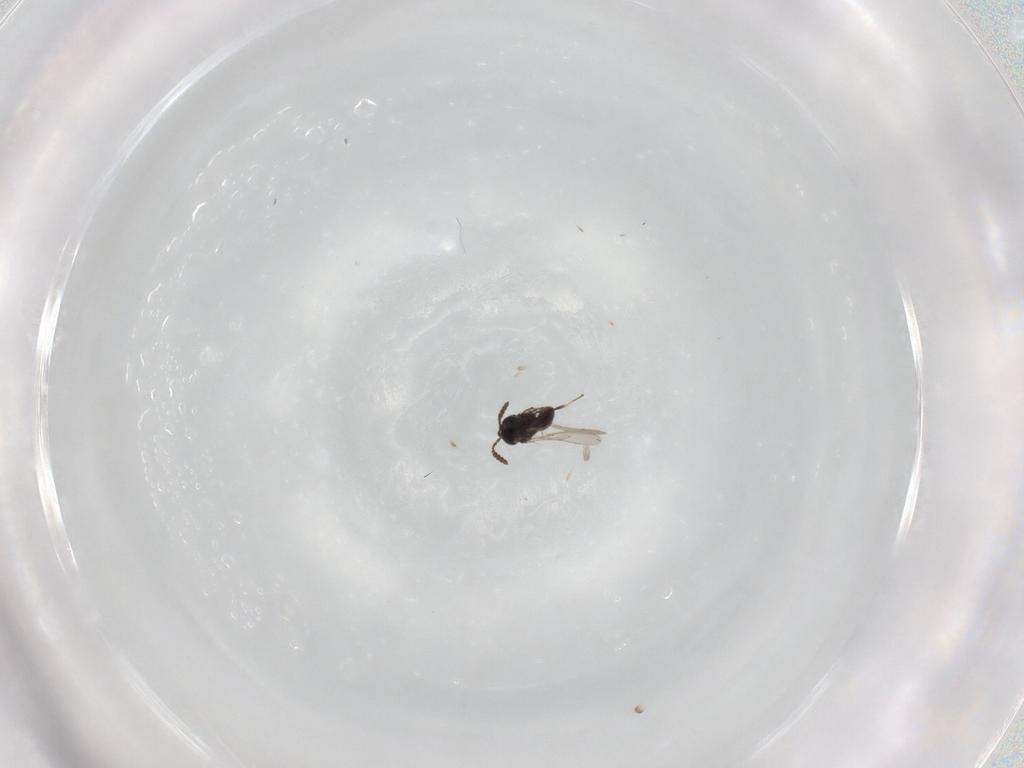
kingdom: Animalia
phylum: Arthropoda
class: Insecta
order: Hymenoptera
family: Scelionidae
